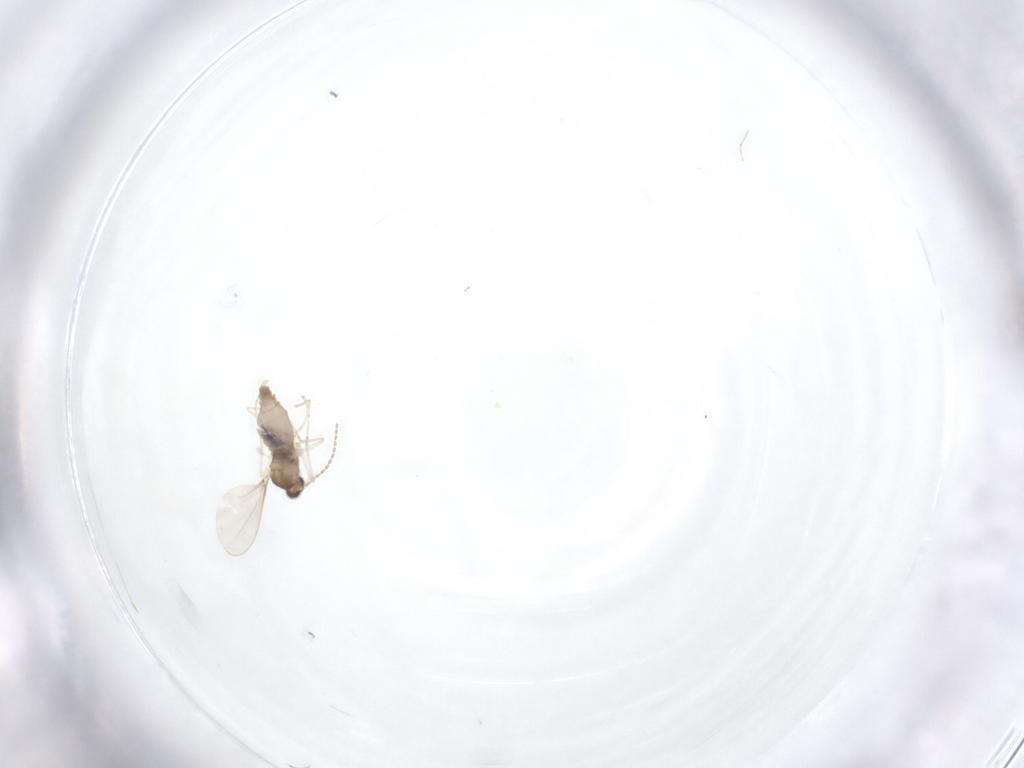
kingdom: Animalia
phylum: Arthropoda
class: Insecta
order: Diptera
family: Cecidomyiidae
